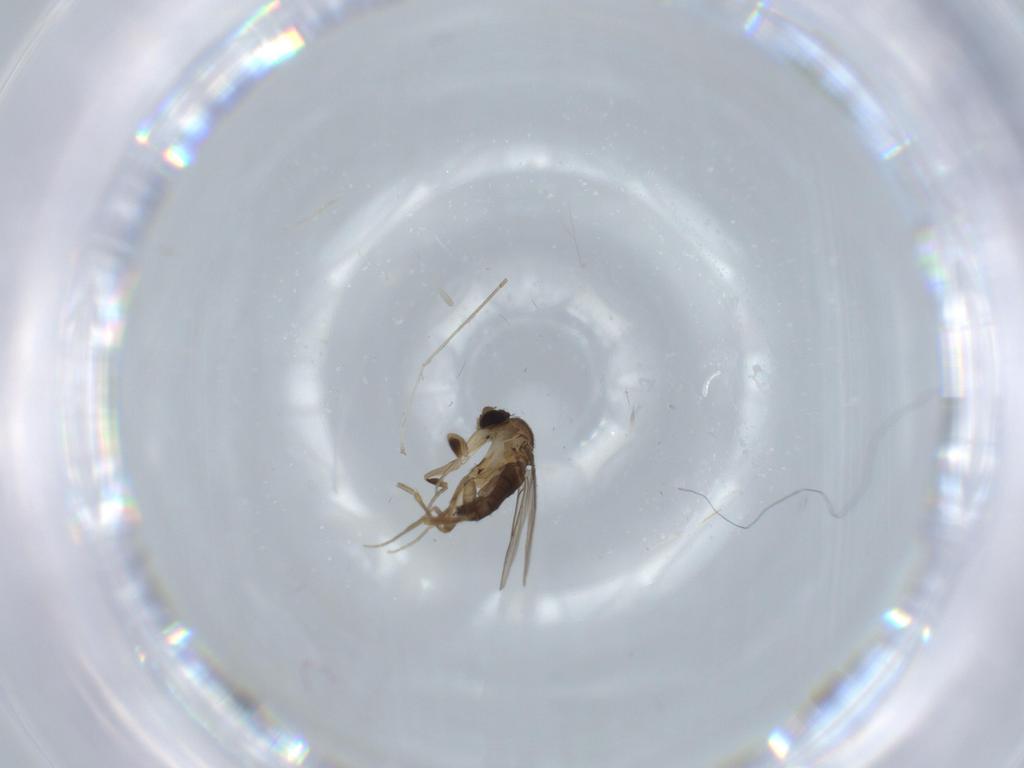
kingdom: Animalia
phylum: Arthropoda
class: Insecta
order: Diptera
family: Phoridae
